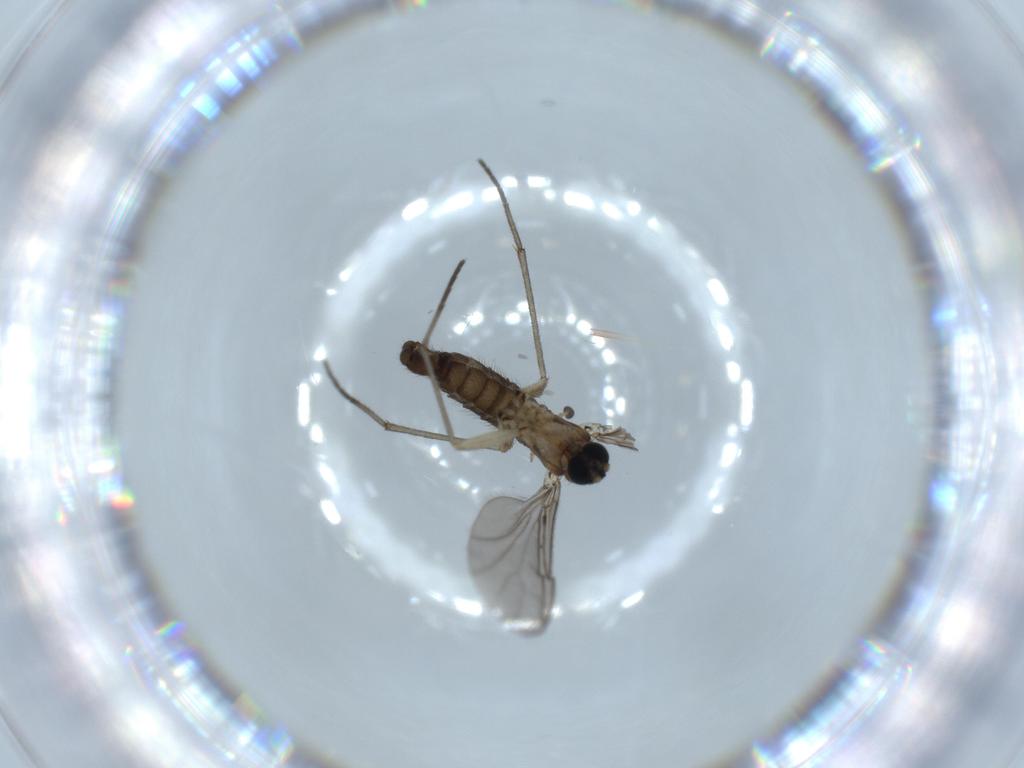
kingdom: Animalia
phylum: Arthropoda
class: Insecta
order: Diptera
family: Sciaridae
